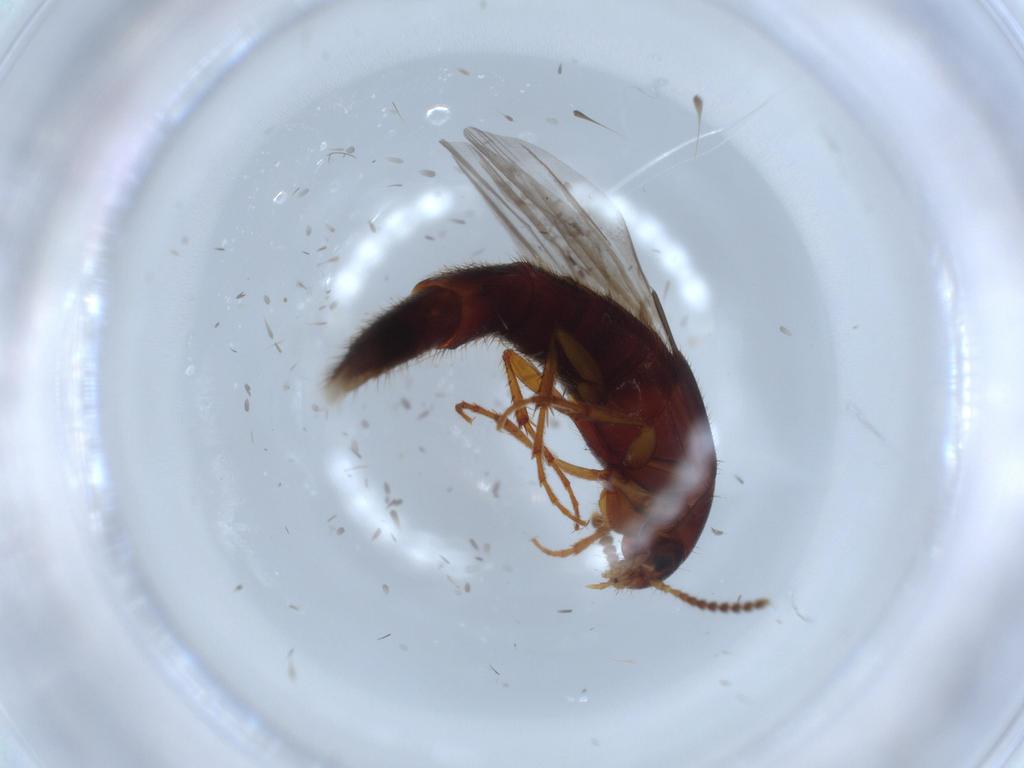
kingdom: Animalia
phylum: Arthropoda
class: Insecta
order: Coleoptera
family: Staphylinidae
